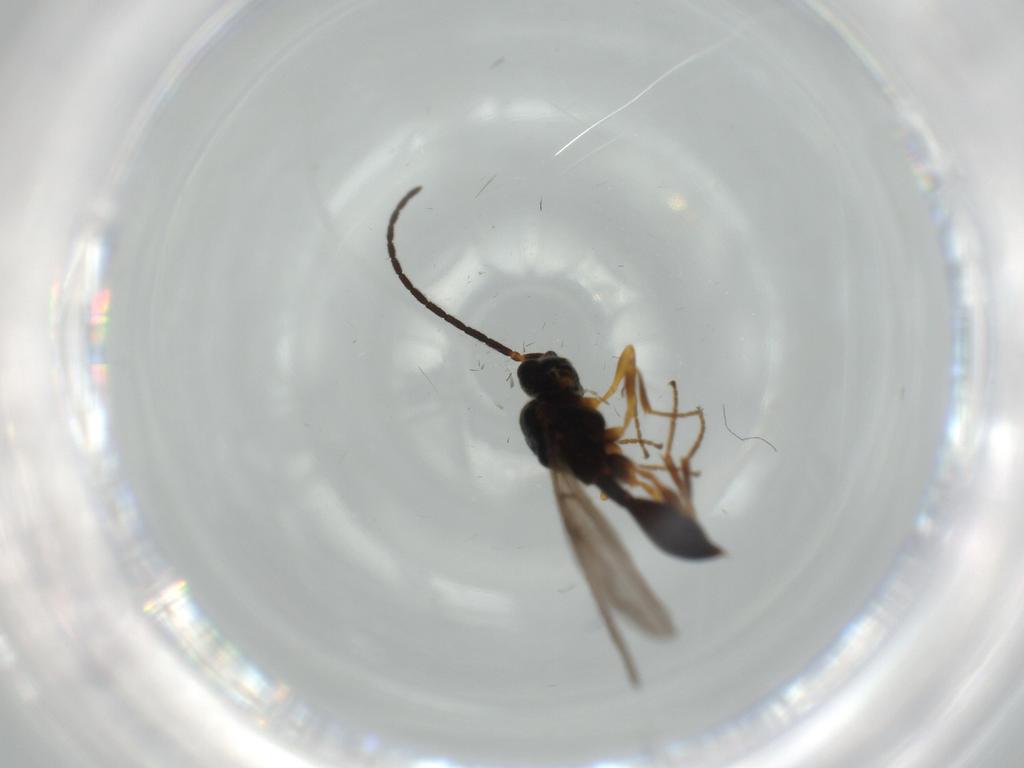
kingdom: Animalia
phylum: Arthropoda
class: Insecta
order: Hymenoptera
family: Diapriidae
